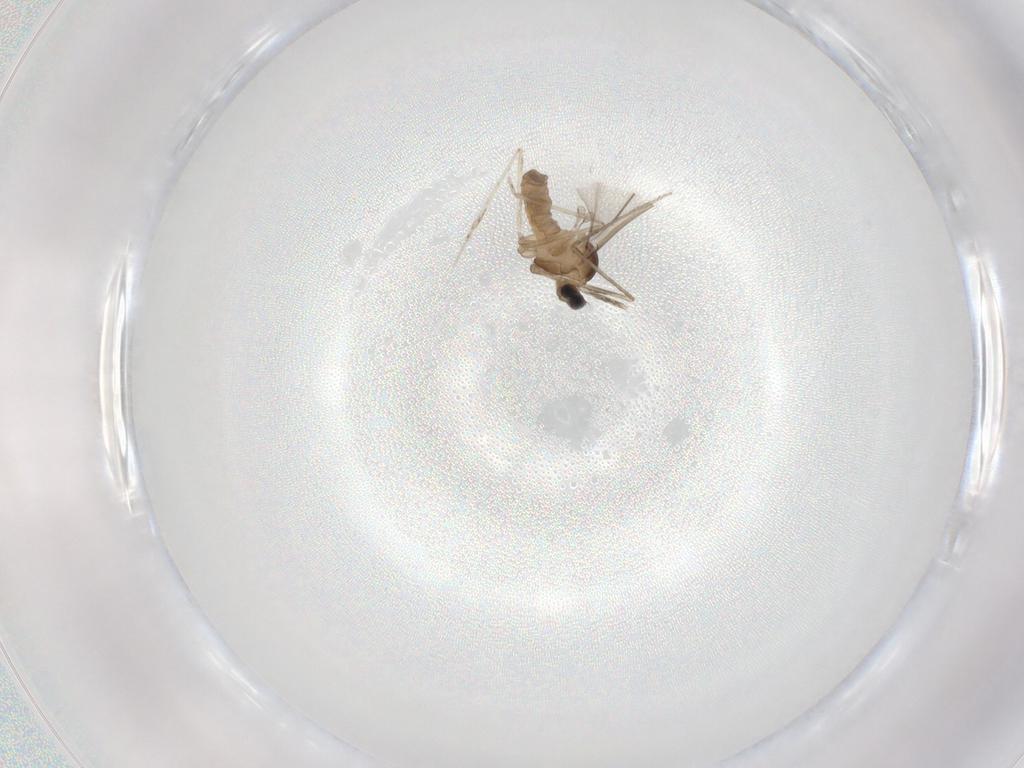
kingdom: Animalia
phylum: Arthropoda
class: Insecta
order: Diptera
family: Cecidomyiidae
